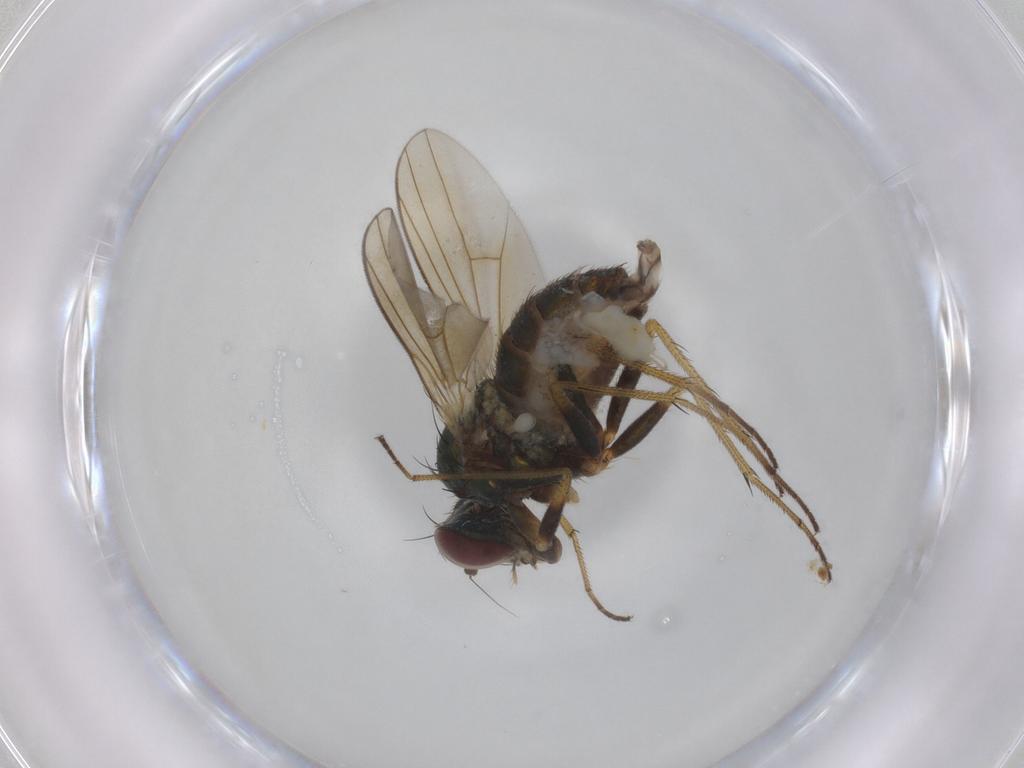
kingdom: Animalia
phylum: Arthropoda
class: Insecta
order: Diptera
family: Dolichopodidae
